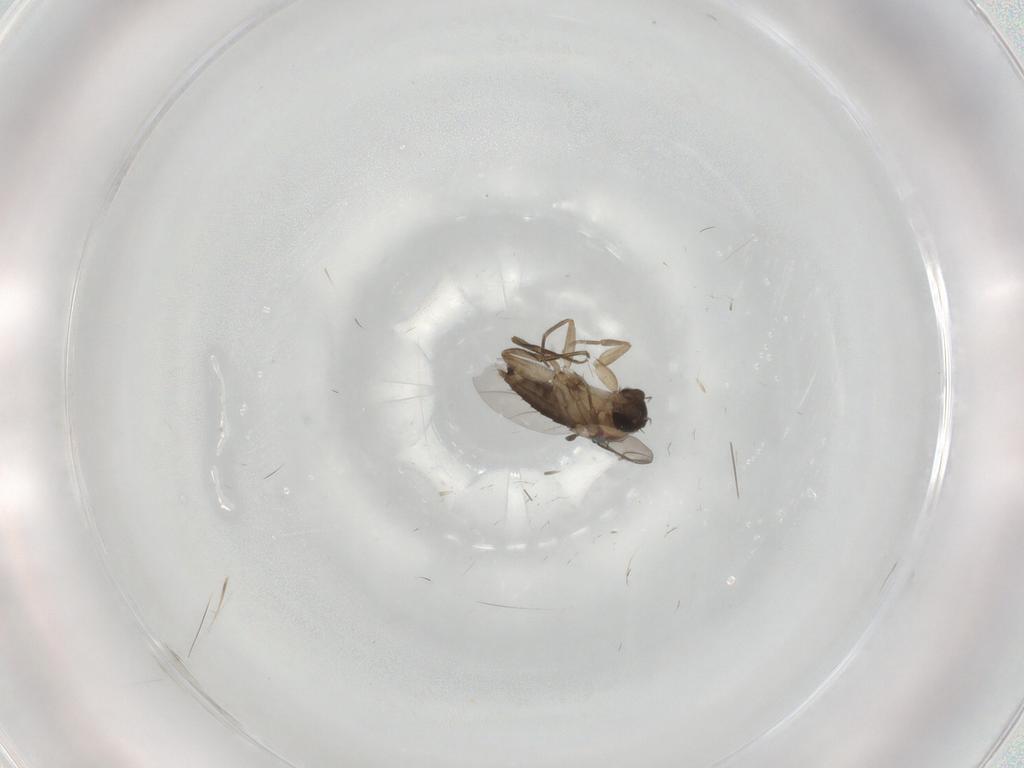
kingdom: Animalia
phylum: Arthropoda
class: Insecta
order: Diptera
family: Phoridae
